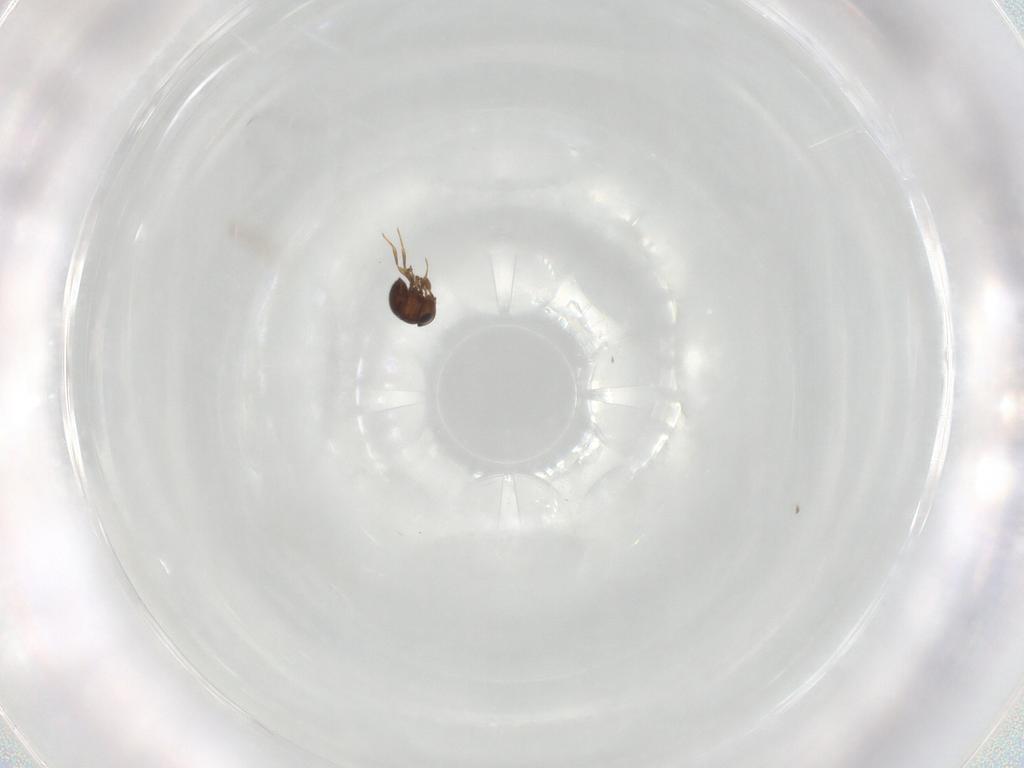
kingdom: Animalia
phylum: Arthropoda
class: Insecta
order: Hymenoptera
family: Scelionidae
